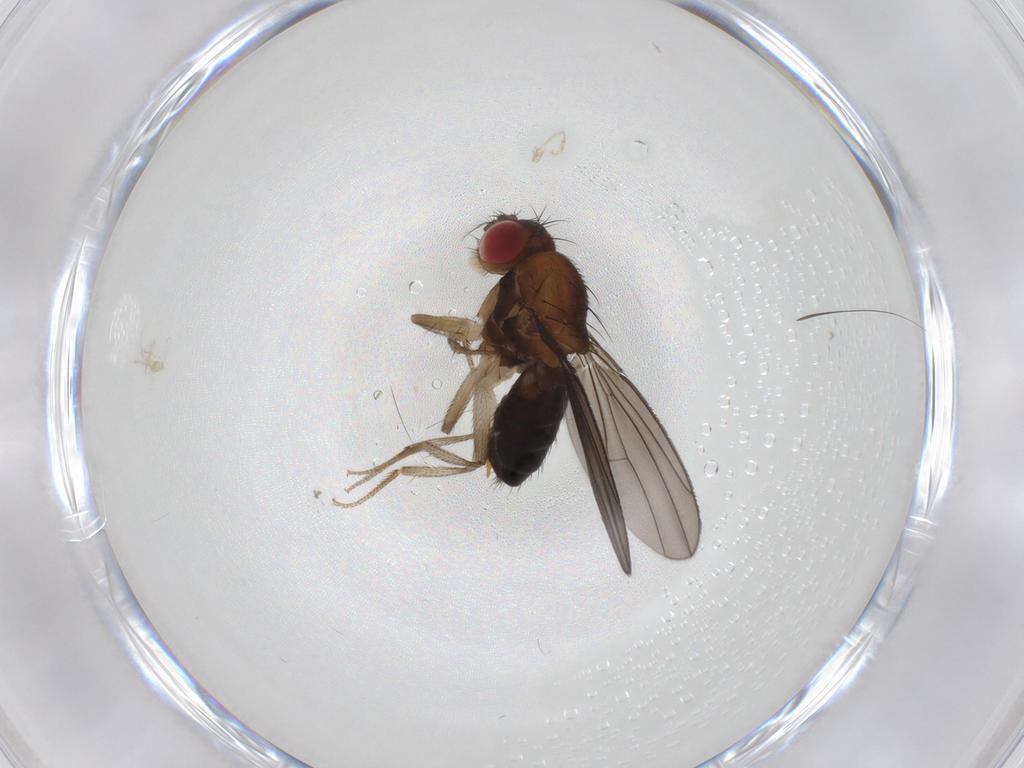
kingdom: Animalia
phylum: Arthropoda
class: Insecta
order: Diptera
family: Drosophilidae
